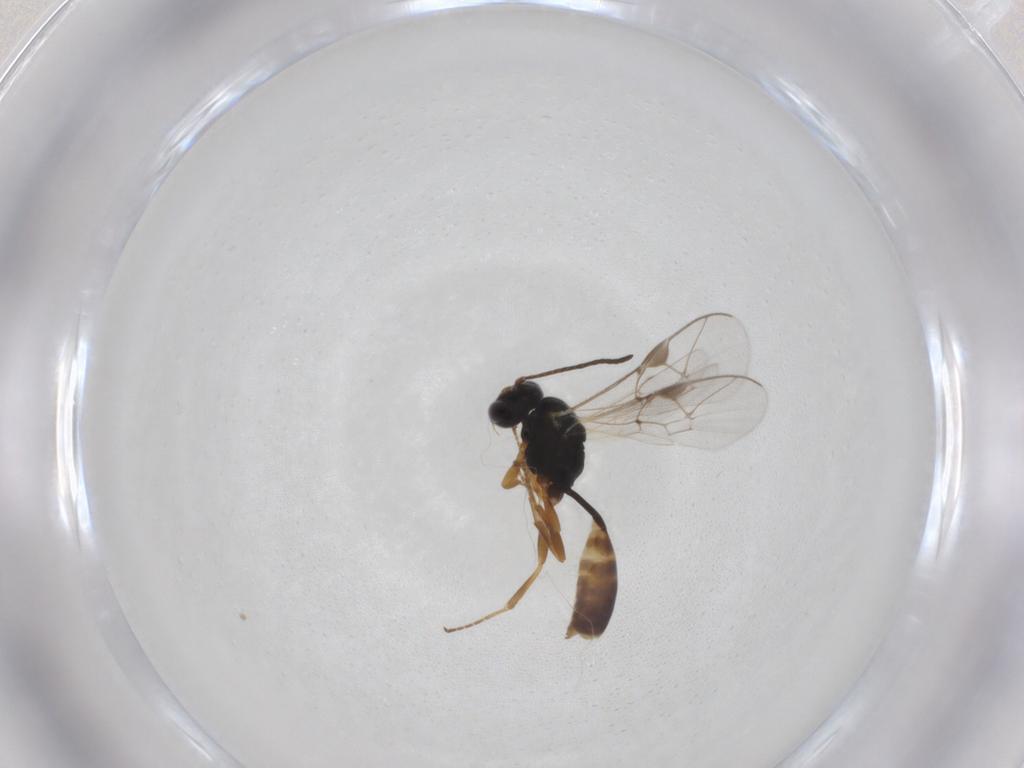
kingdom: Animalia
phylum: Arthropoda
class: Insecta
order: Hymenoptera
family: Ichneumonidae
